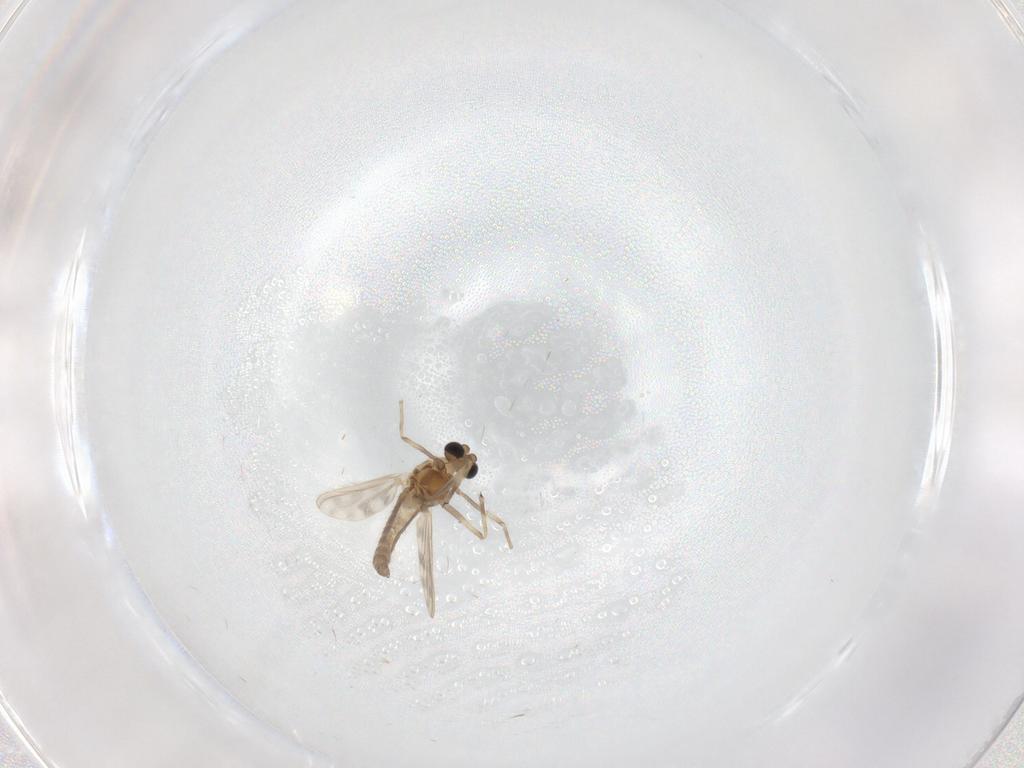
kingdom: Animalia
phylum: Arthropoda
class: Insecta
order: Diptera
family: Chironomidae
